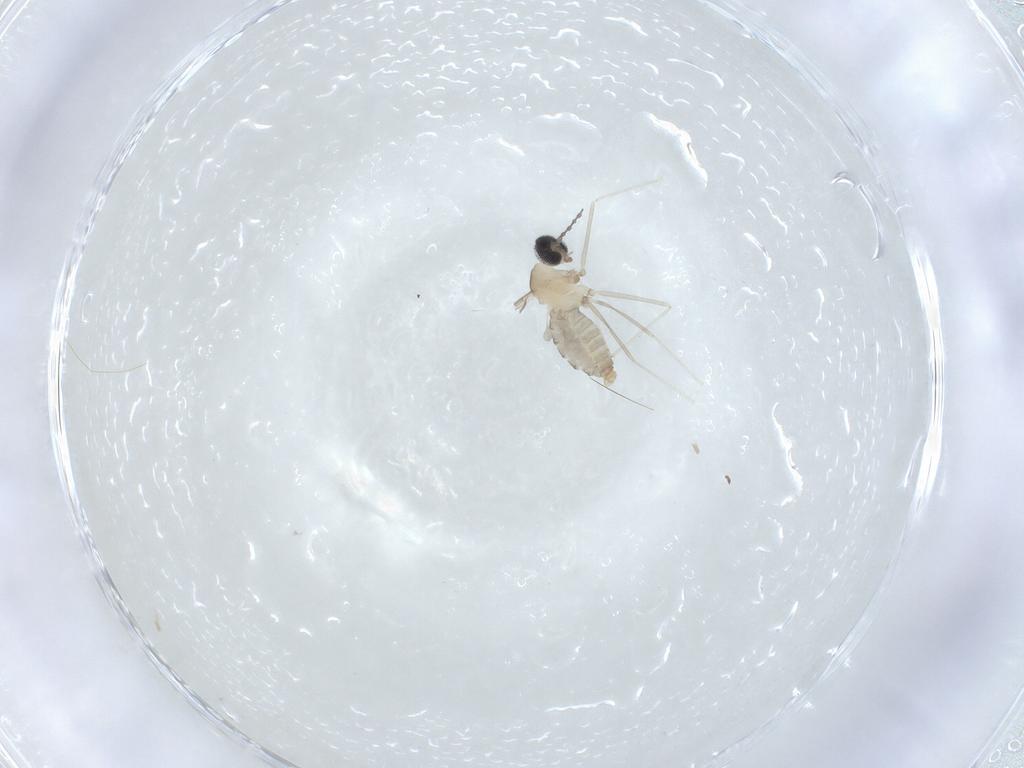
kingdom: Animalia
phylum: Arthropoda
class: Insecta
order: Diptera
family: Cecidomyiidae
